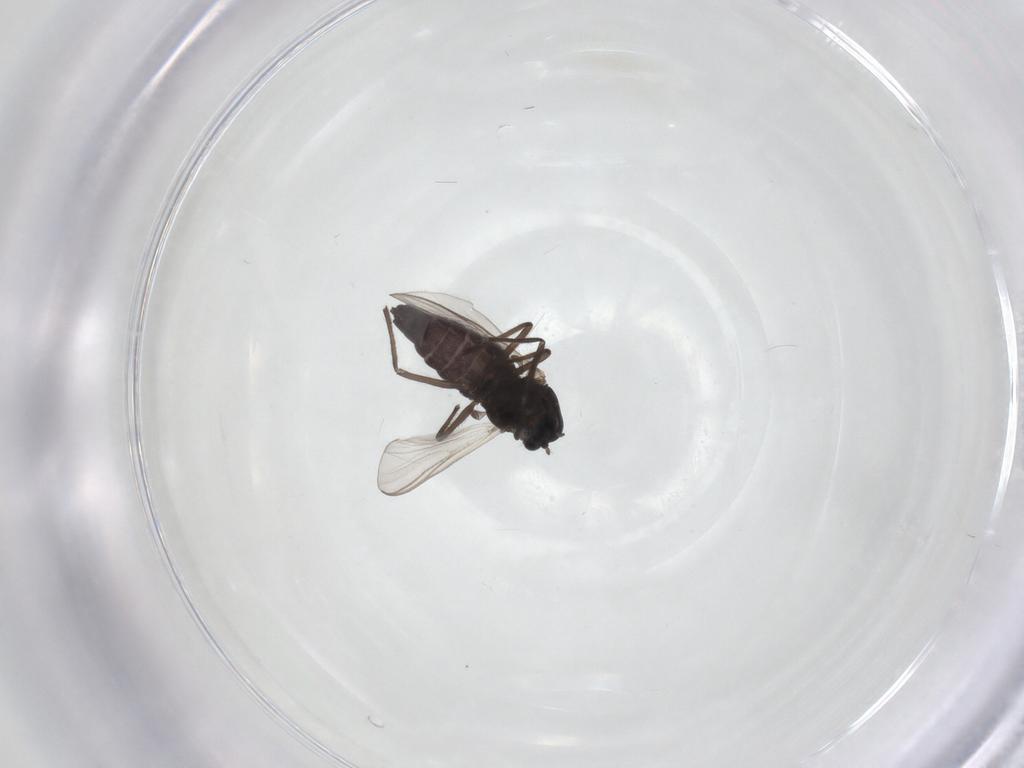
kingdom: Animalia
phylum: Arthropoda
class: Insecta
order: Diptera
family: Chironomidae
